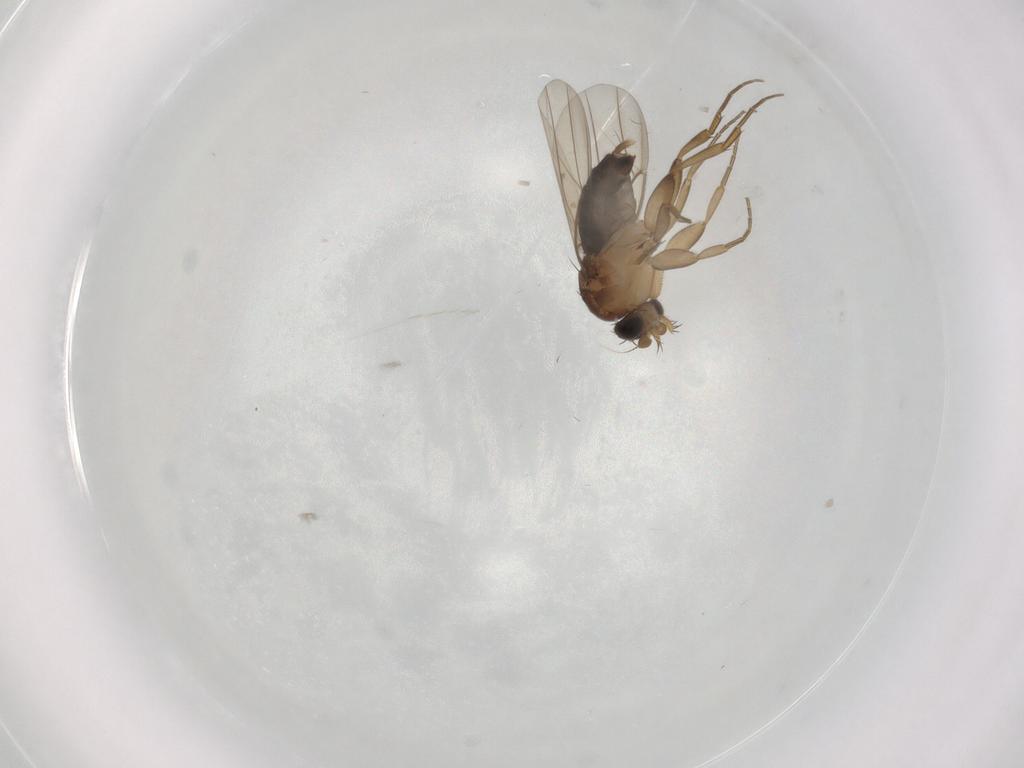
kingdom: Animalia
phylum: Arthropoda
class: Insecta
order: Diptera
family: Phoridae
